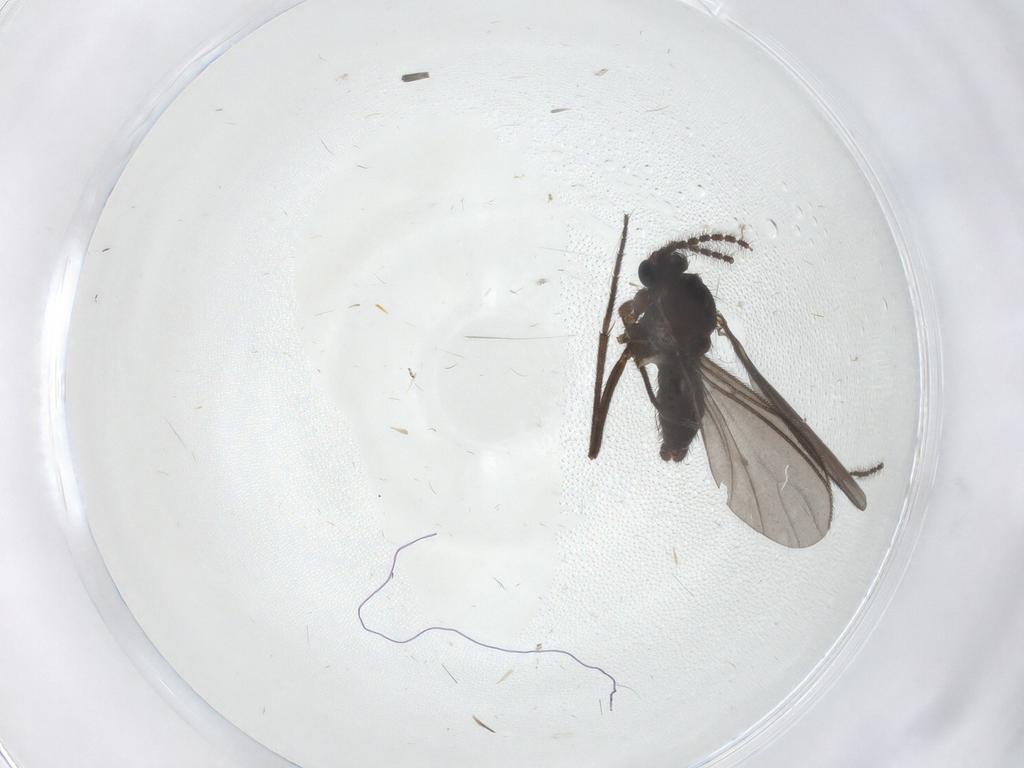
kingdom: Animalia
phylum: Arthropoda
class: Insecta
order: Diptera
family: Sciaridae
